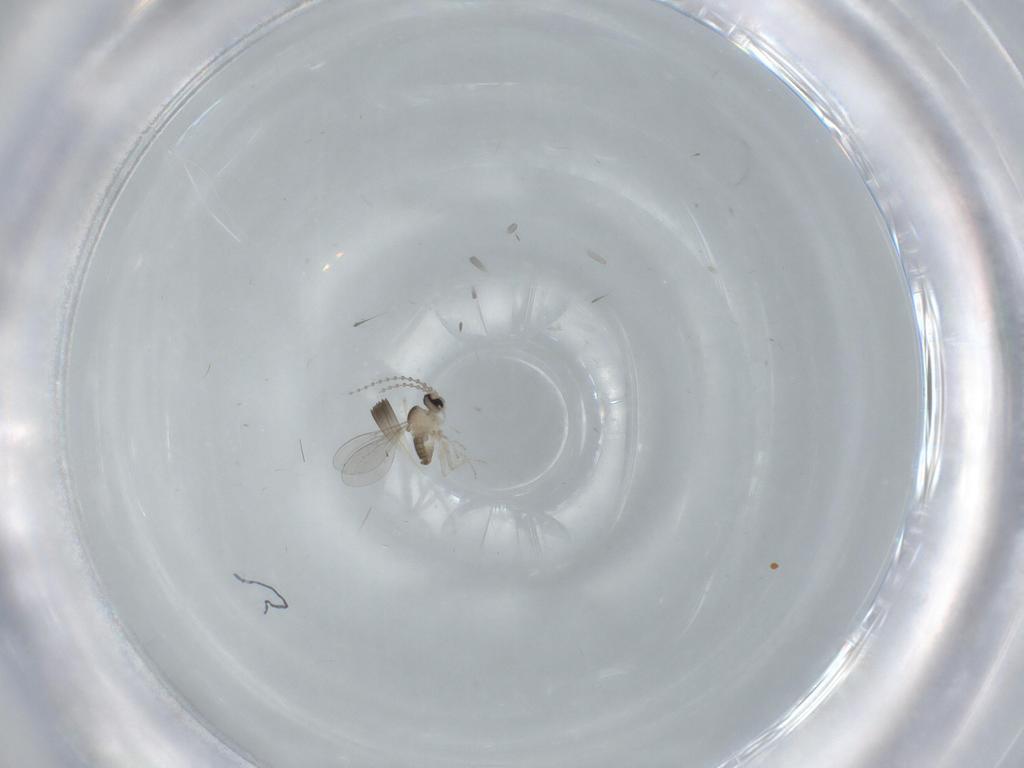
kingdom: Animalia
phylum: Arthropoda
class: Insecta
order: Diptera
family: Cecidomyiidae
